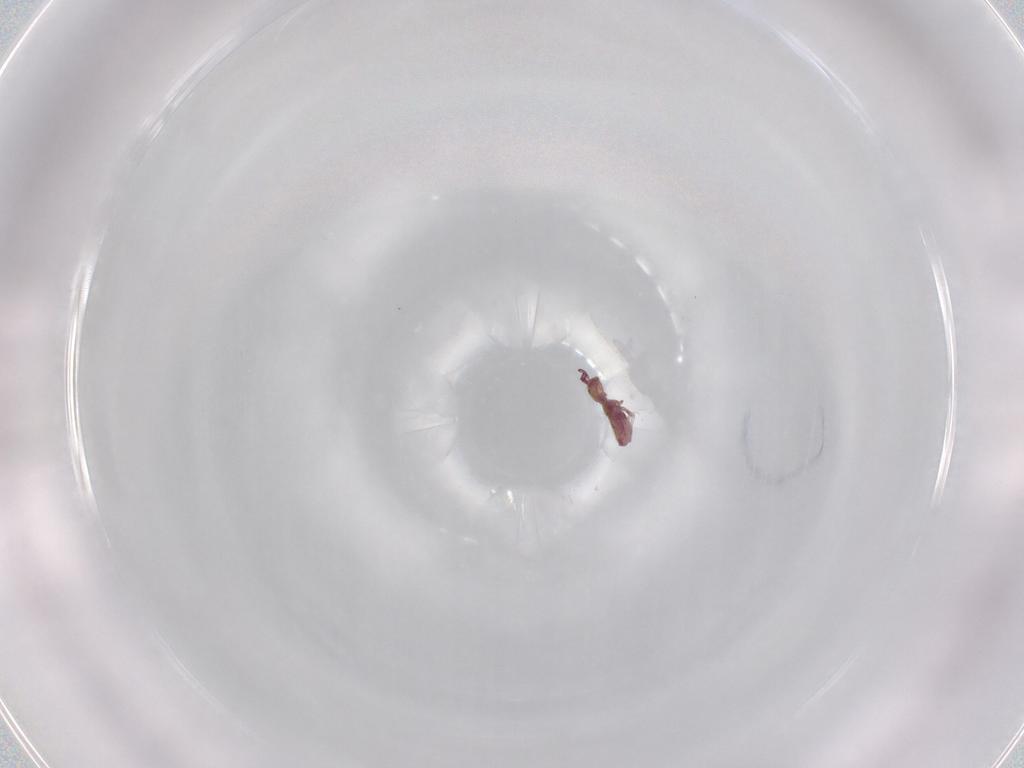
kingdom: Animalia
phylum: Arthropoda
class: Collembola
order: Entomobryomorpha
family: Isotomidae
